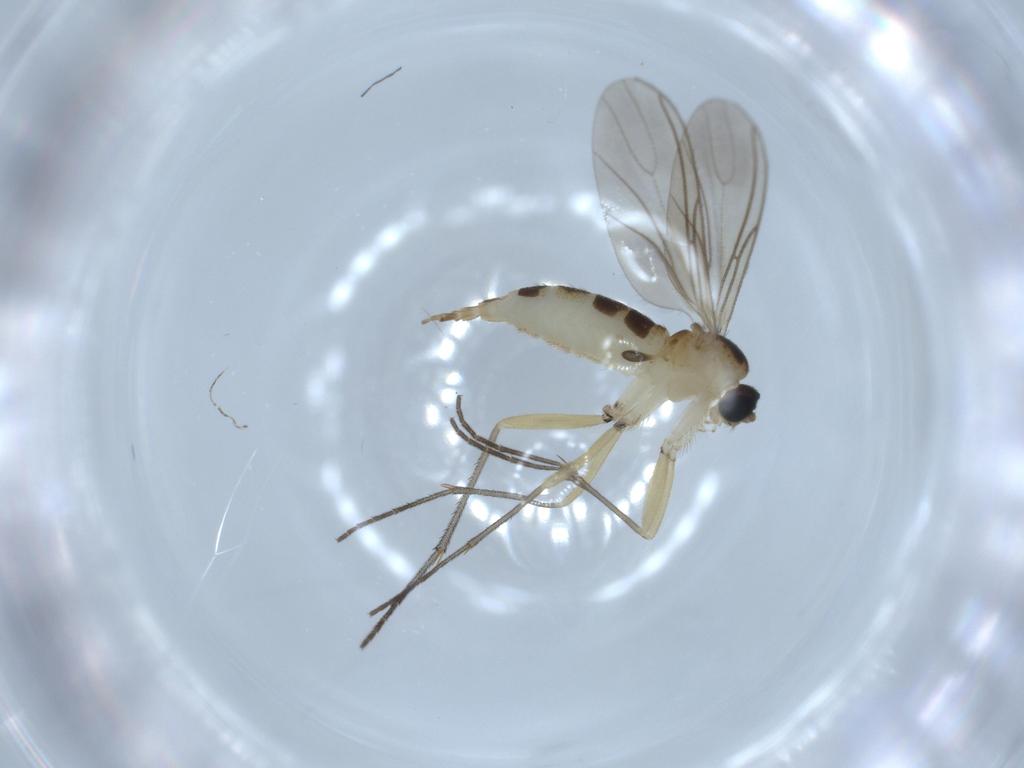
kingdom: Animalia
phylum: Arthropoda
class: Insecta
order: Diptera
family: Sciaridae
